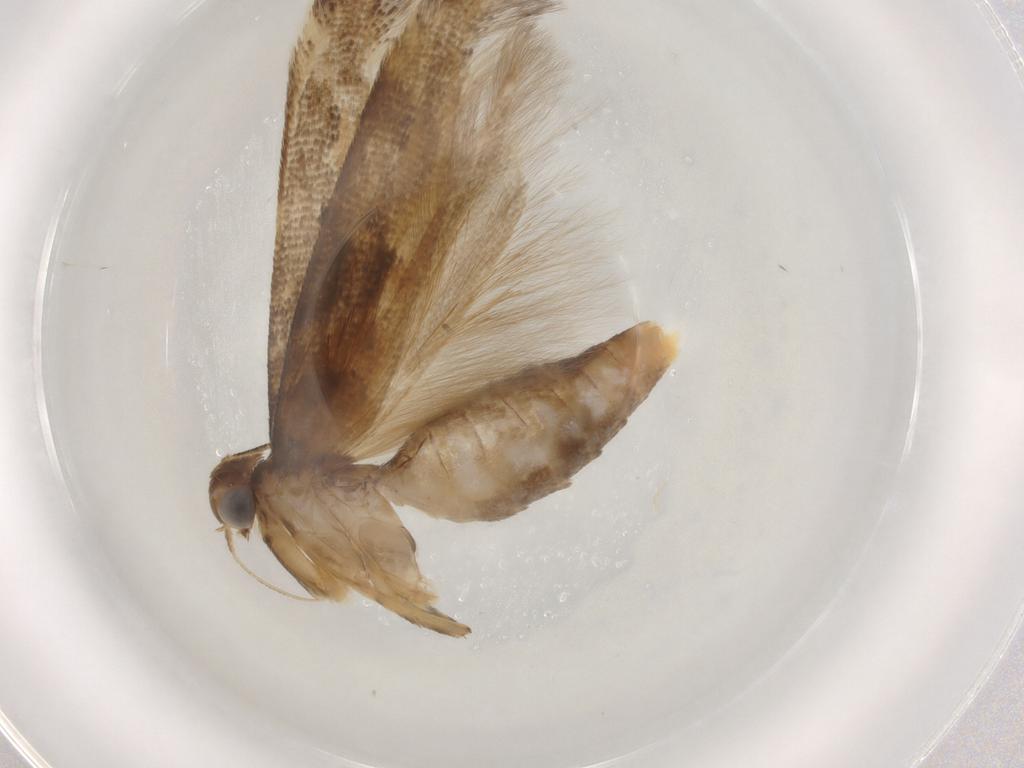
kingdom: Animalia
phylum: Arthropoda
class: Insecta
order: Lepidoptera
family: Gelechiidae
